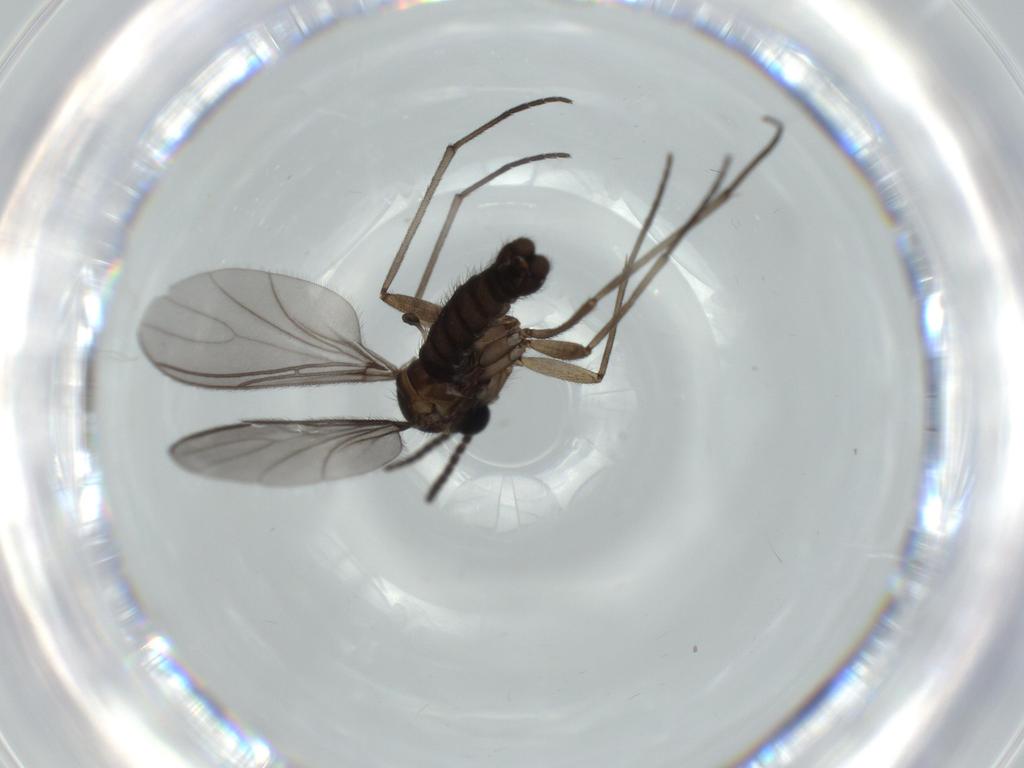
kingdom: Animalia
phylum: Arthropoda
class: Insecta
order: Diptera
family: Sciaridae
